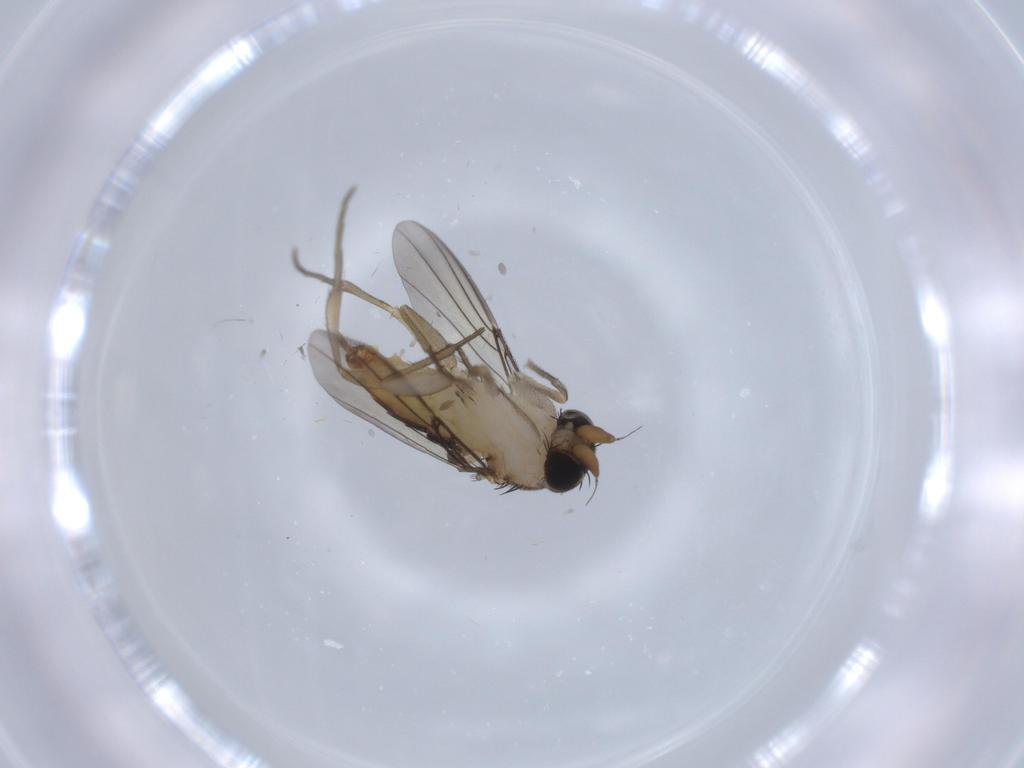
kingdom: Animalia
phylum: Arthropoda
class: Insecta
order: Diptera
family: Phoridae
